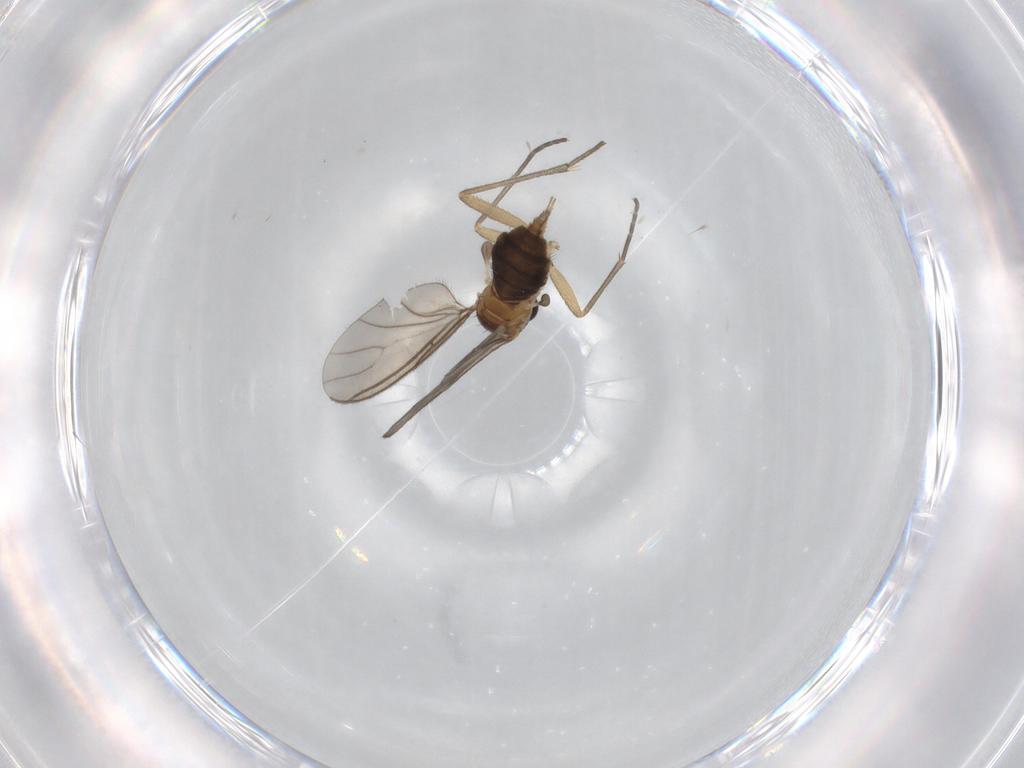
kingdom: Animalia
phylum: Arthropoda
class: Insecta
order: Diptera
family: Sciaridae
